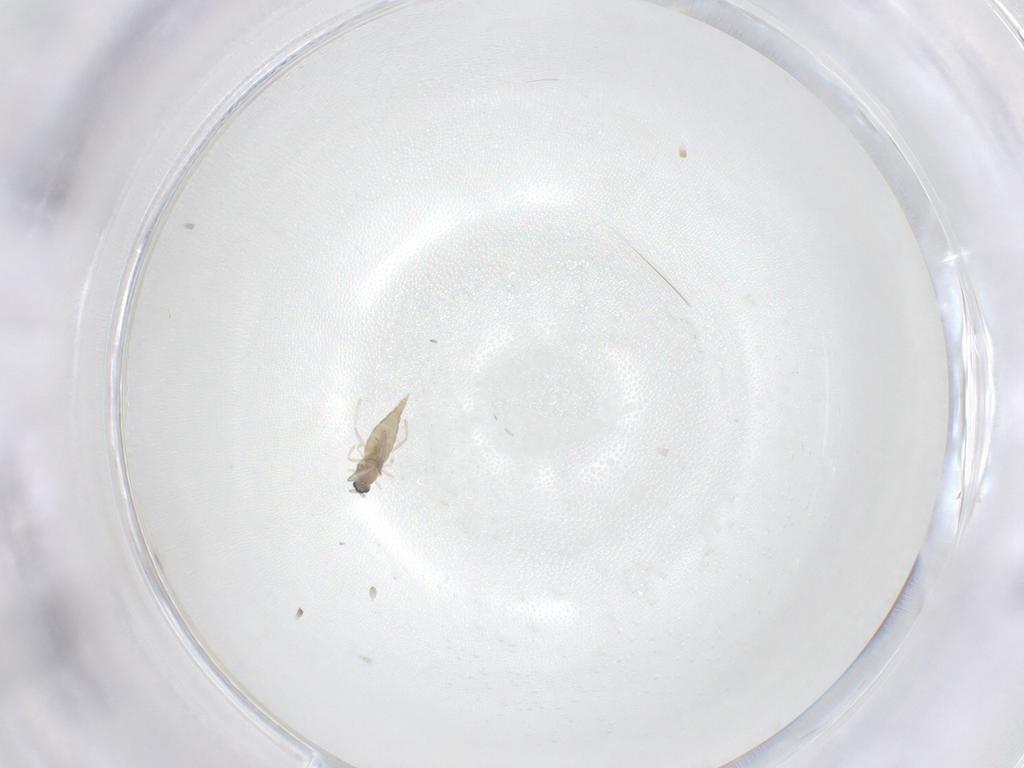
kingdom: Animalia
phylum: Arthropoda
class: Insecta
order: Diptera
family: Cecidomyiidae
